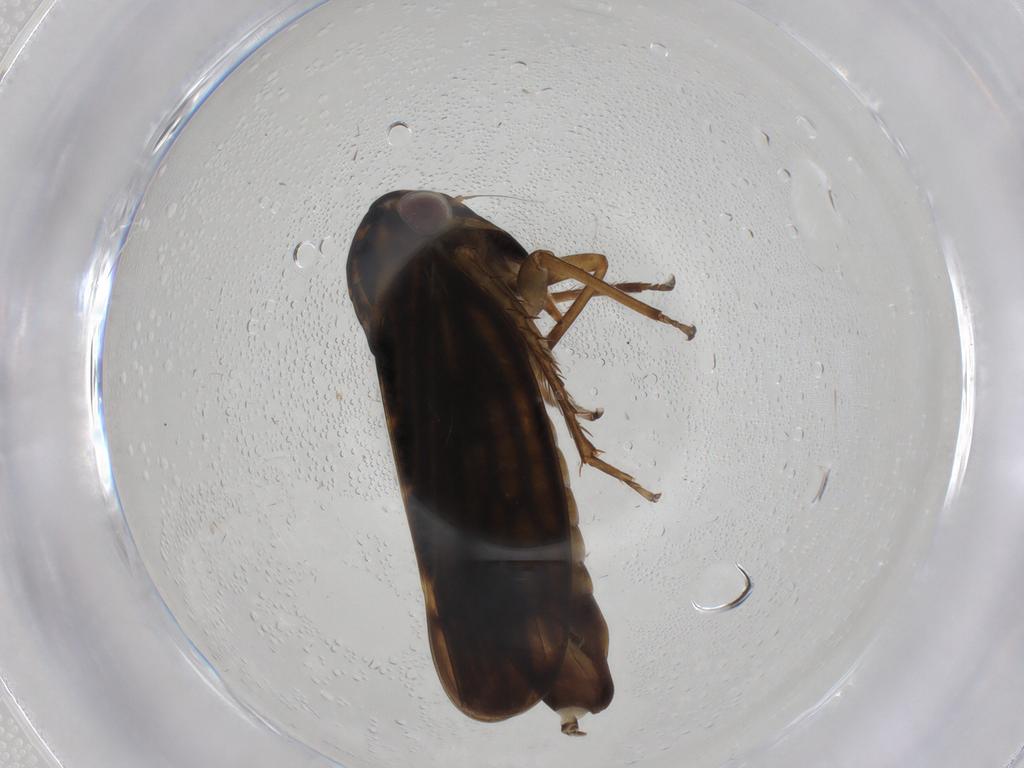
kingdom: Animalia
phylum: Arthropoda
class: Insecta
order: Hemiptera
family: Cicadellidae
